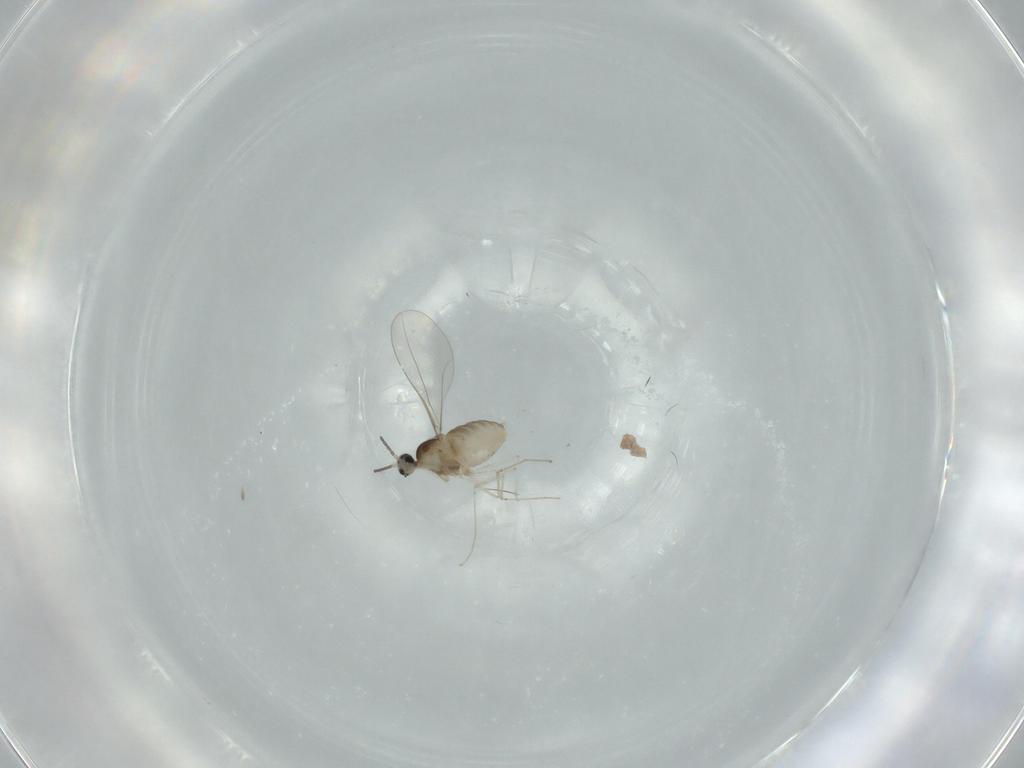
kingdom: Animalia
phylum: Arthropoda
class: Insecta
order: Diptera
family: Cecidomyiidae
